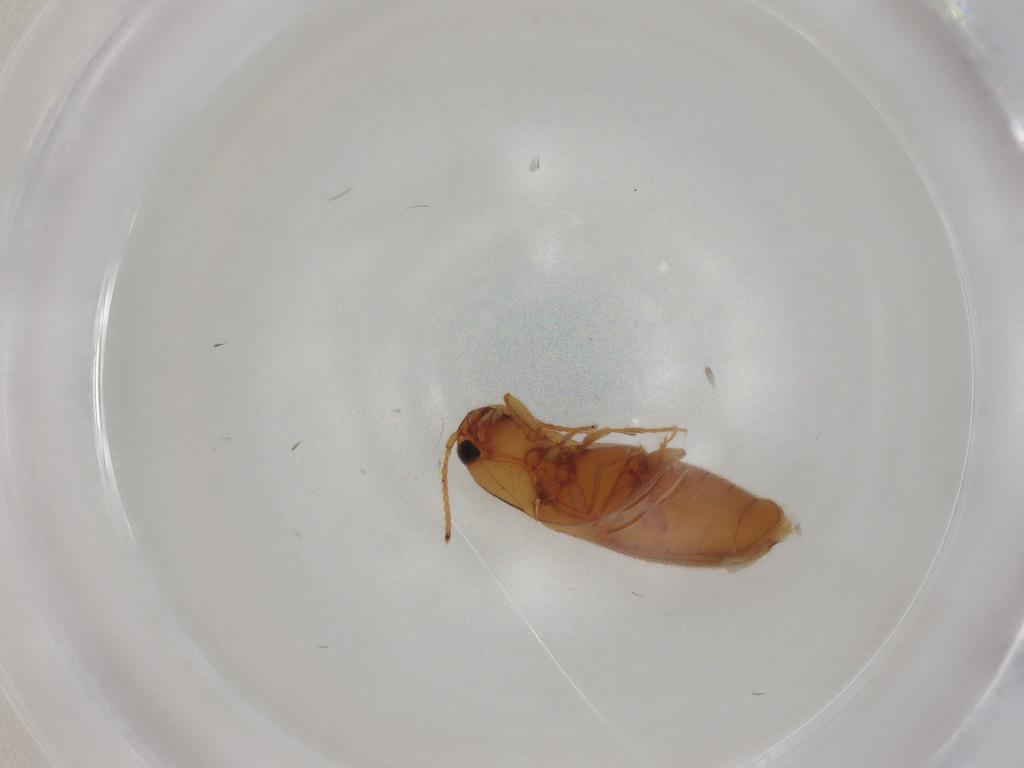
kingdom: Animalia
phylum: Arthropoda
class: Insecta
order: Coleoptera
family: Elateridae
